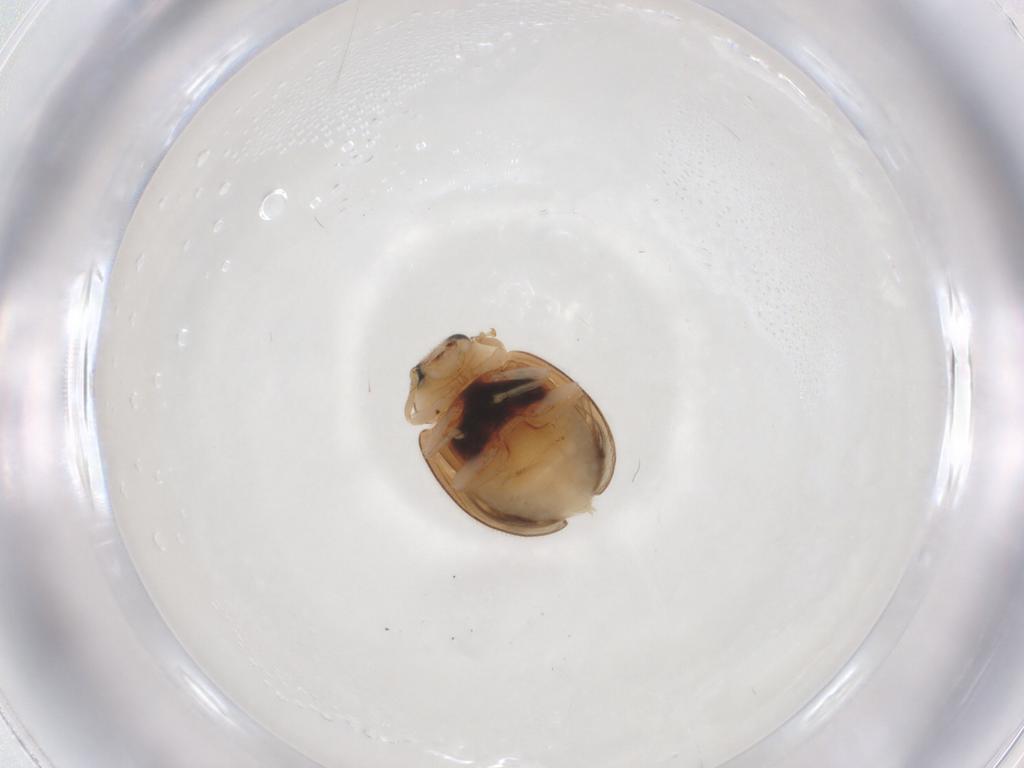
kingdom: Animalia
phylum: Arthropoda
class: Insecta
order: Coleoptera
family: Coccinellidae
